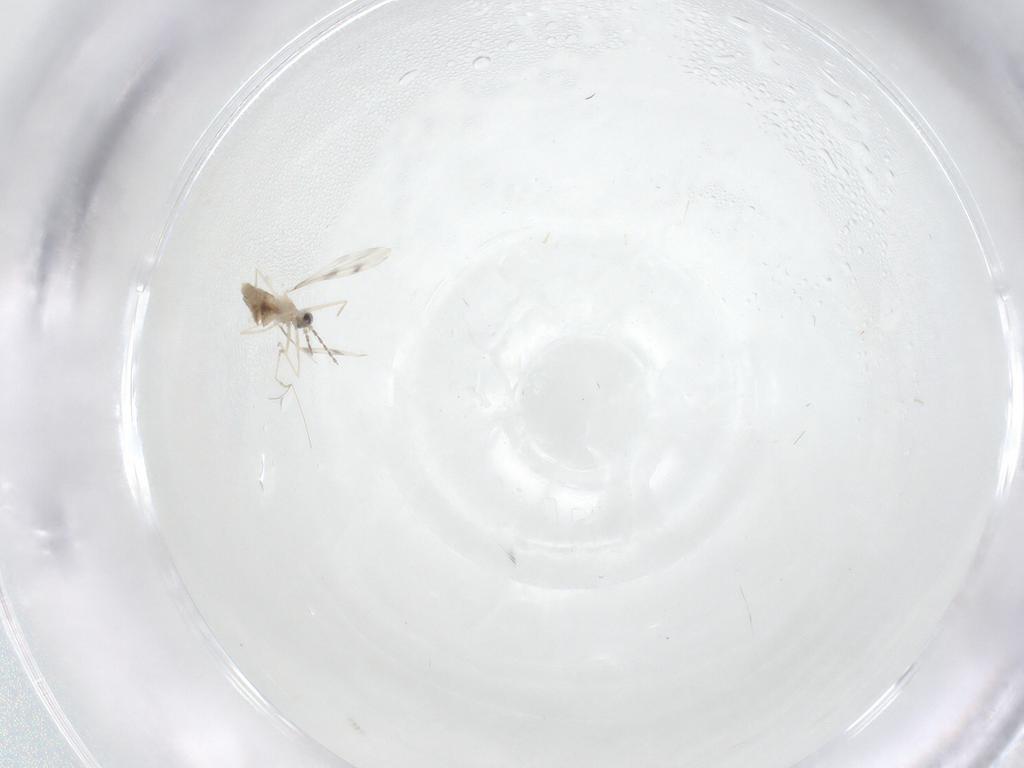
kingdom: Animalia
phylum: Arthropoda
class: Insecta
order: Diptera
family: Cecidomyiidae
